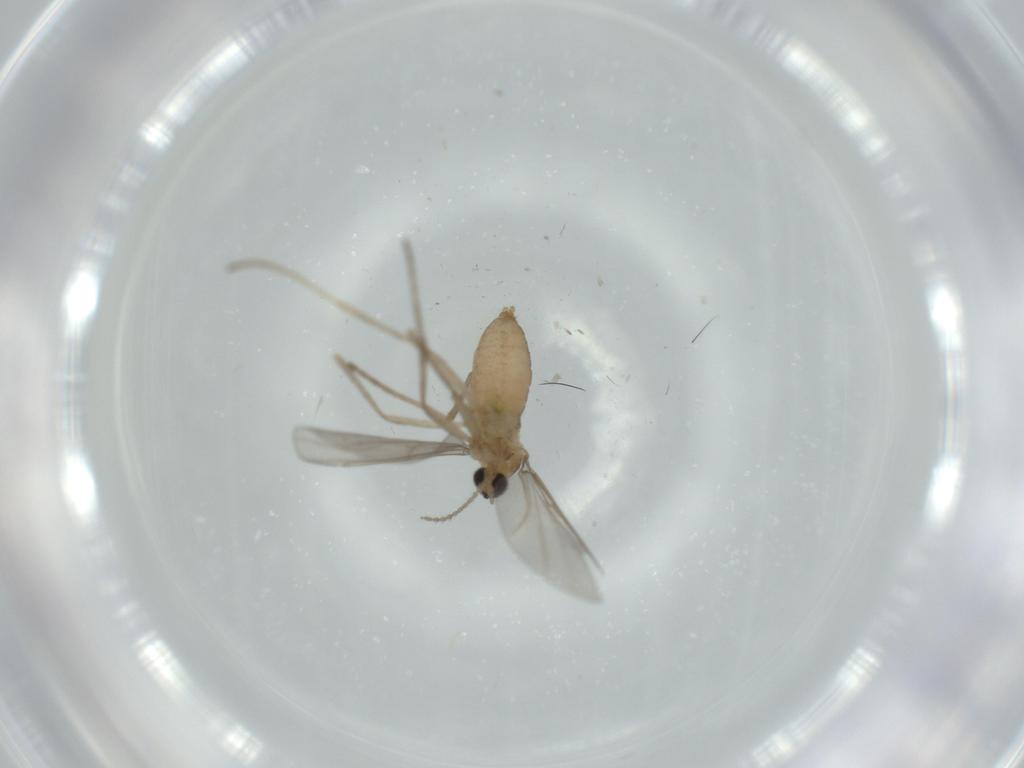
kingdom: Animalia
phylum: Arthropoda
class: Insecta
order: Diptera
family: Cecidomyiidae
